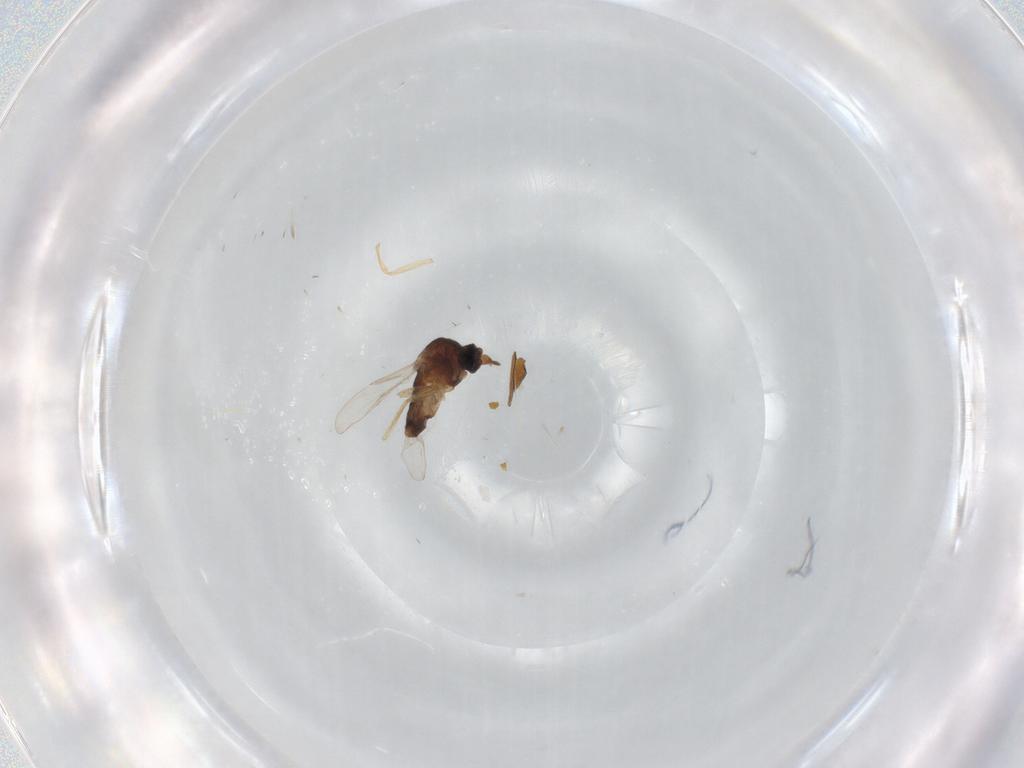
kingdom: Animalia
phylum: Arthropoda
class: Insecta
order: Diptera
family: Ceratopogonidae
